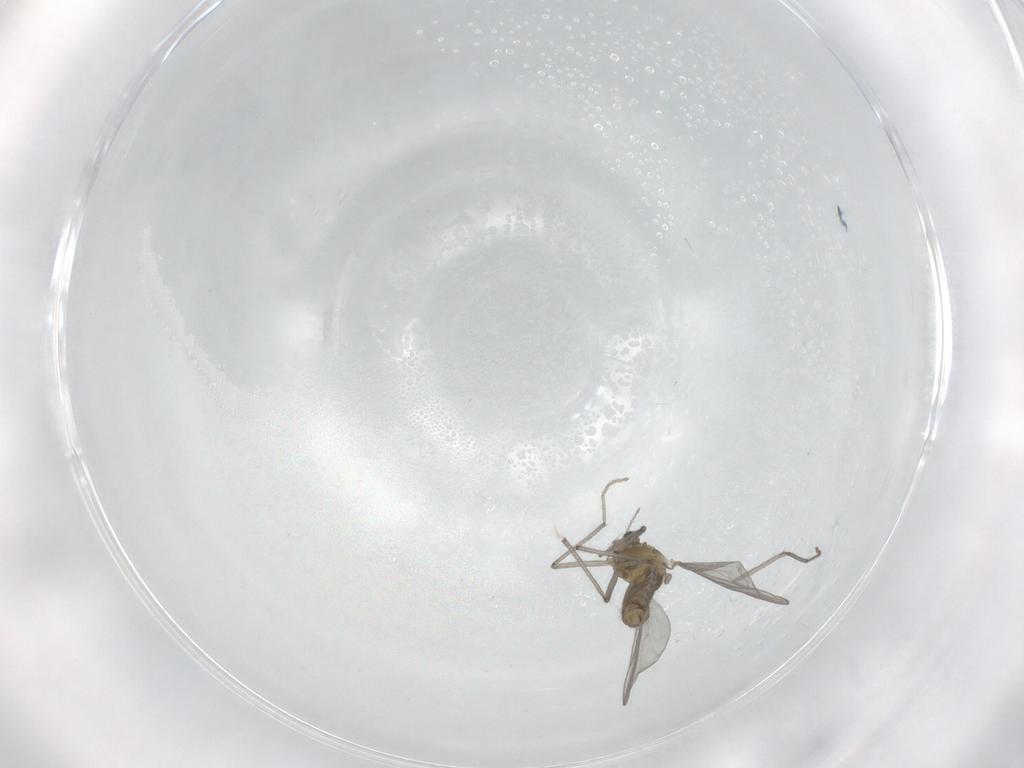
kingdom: Animalia
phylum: Arthropoda
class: Insecta
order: Diptera
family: Chironomidae
